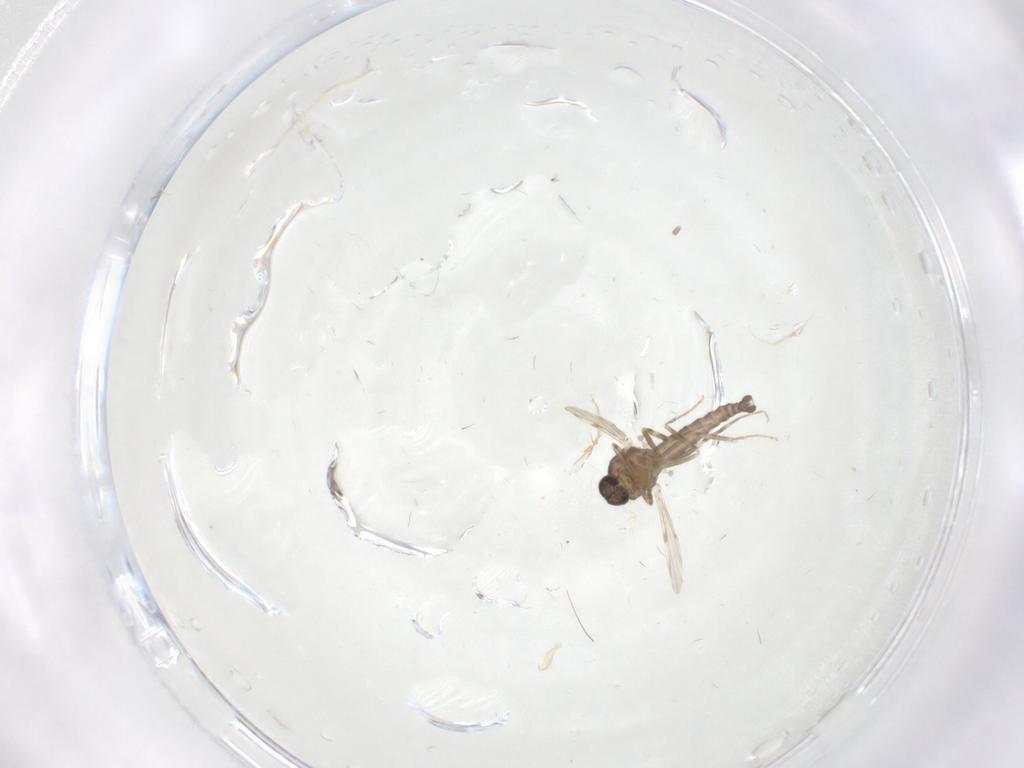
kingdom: Animalia
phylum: Arthropoda
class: Insecta
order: Diptera
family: Ceratopogonidae
